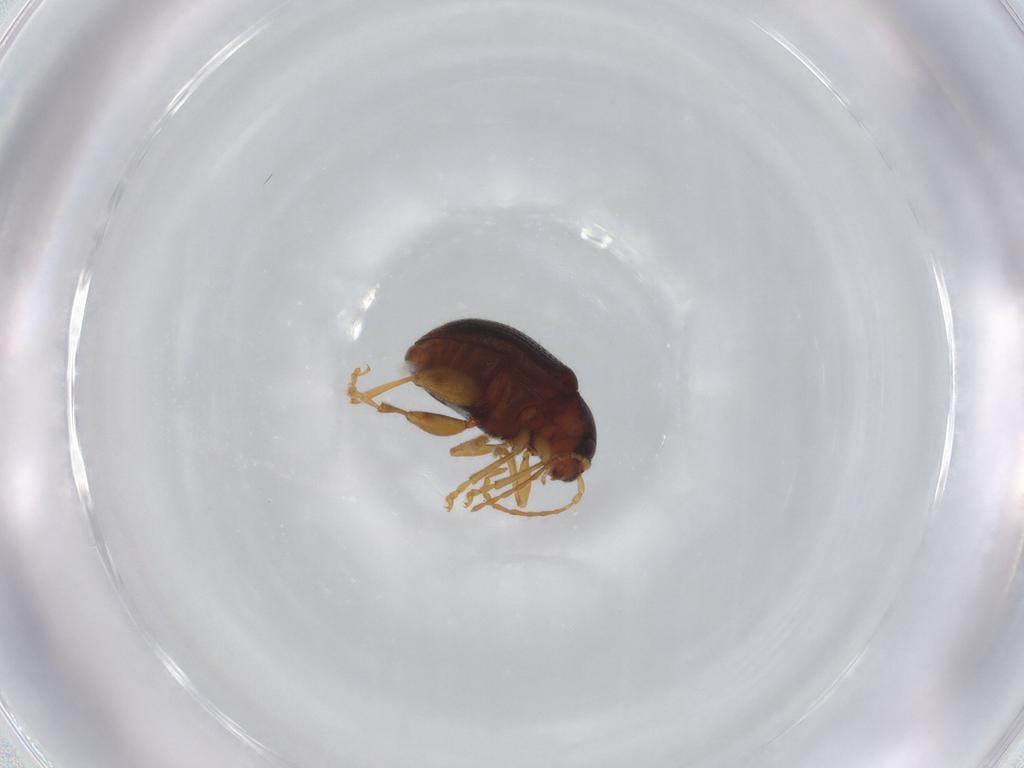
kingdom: Animalia
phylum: Arthropoda
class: Insecta
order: Coleoptera
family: Chrysomelidae
